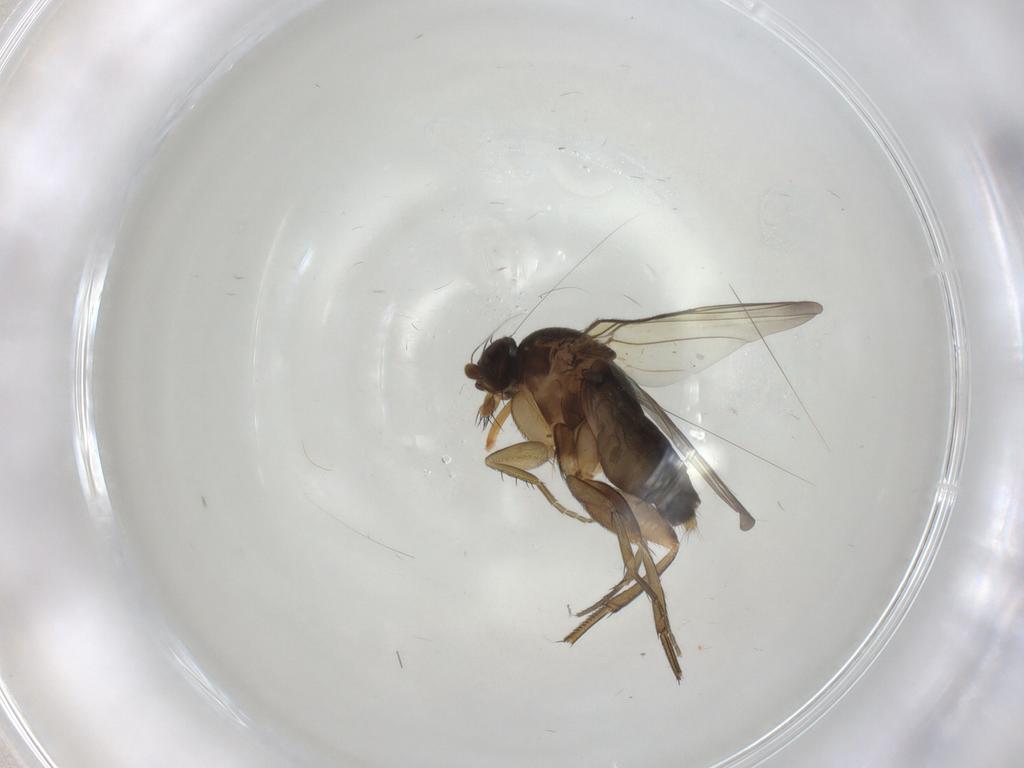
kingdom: Animalia
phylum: Arthropoda
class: Insecta
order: Diptera
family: Phoridae
